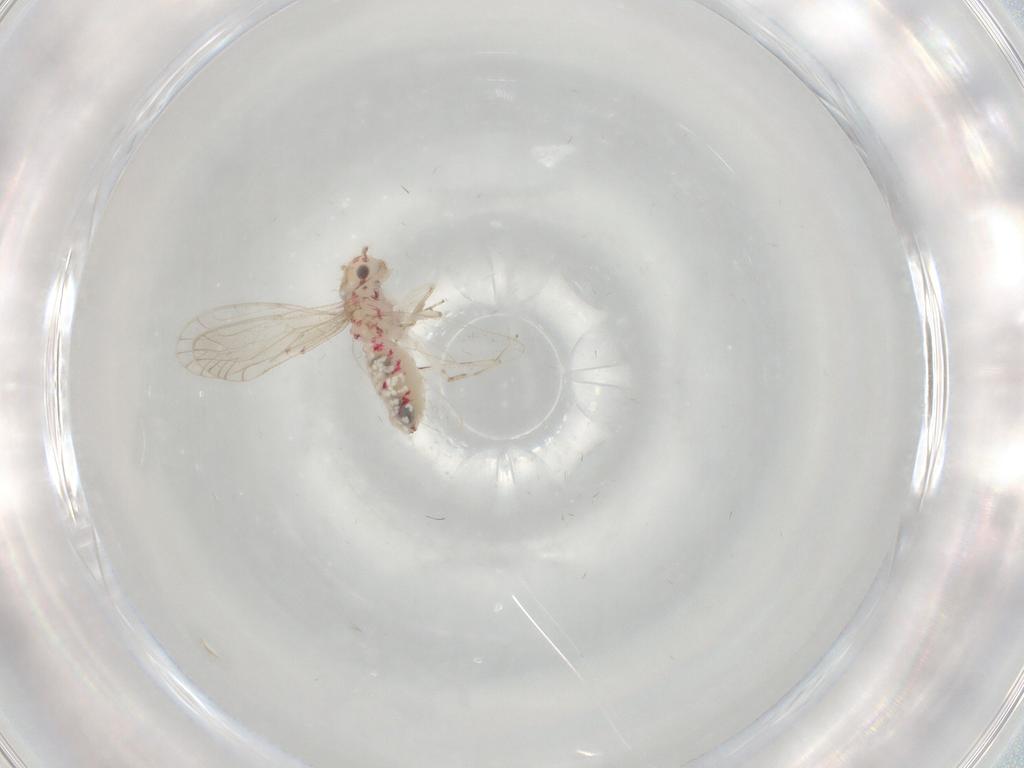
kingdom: Animalia
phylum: Arthropoda
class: Insecta
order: Psocodea
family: Caeciliusidae
